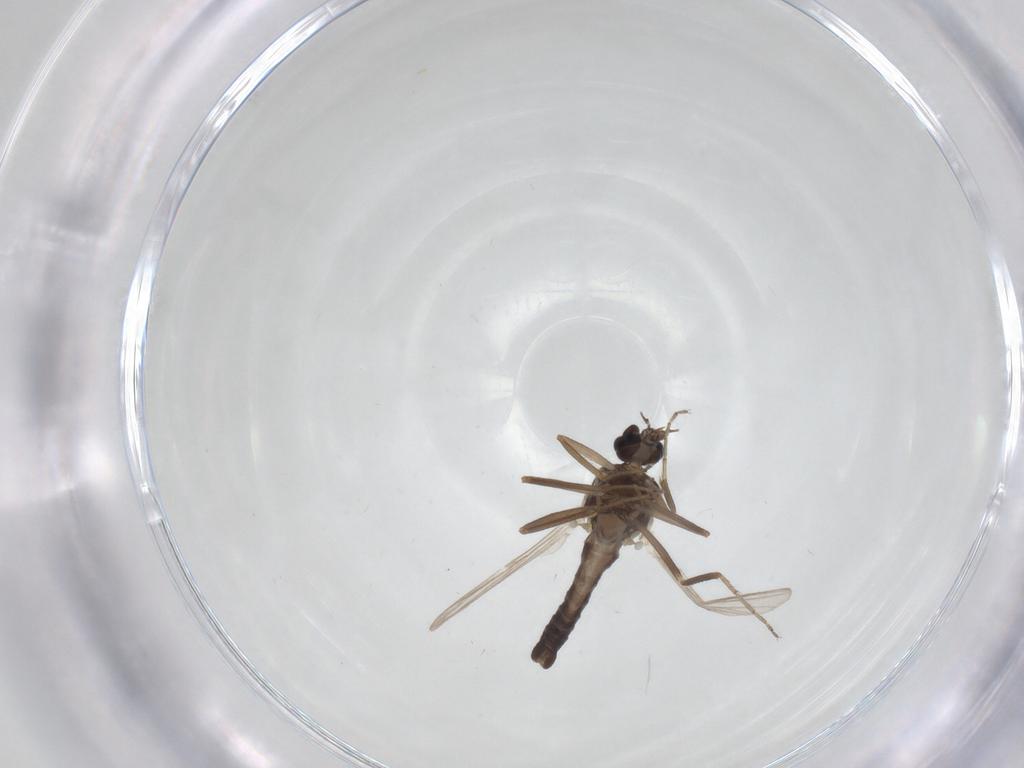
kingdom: Animalia
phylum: Arthropoda
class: Insecta
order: Diptera
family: Ceratopogonidae
